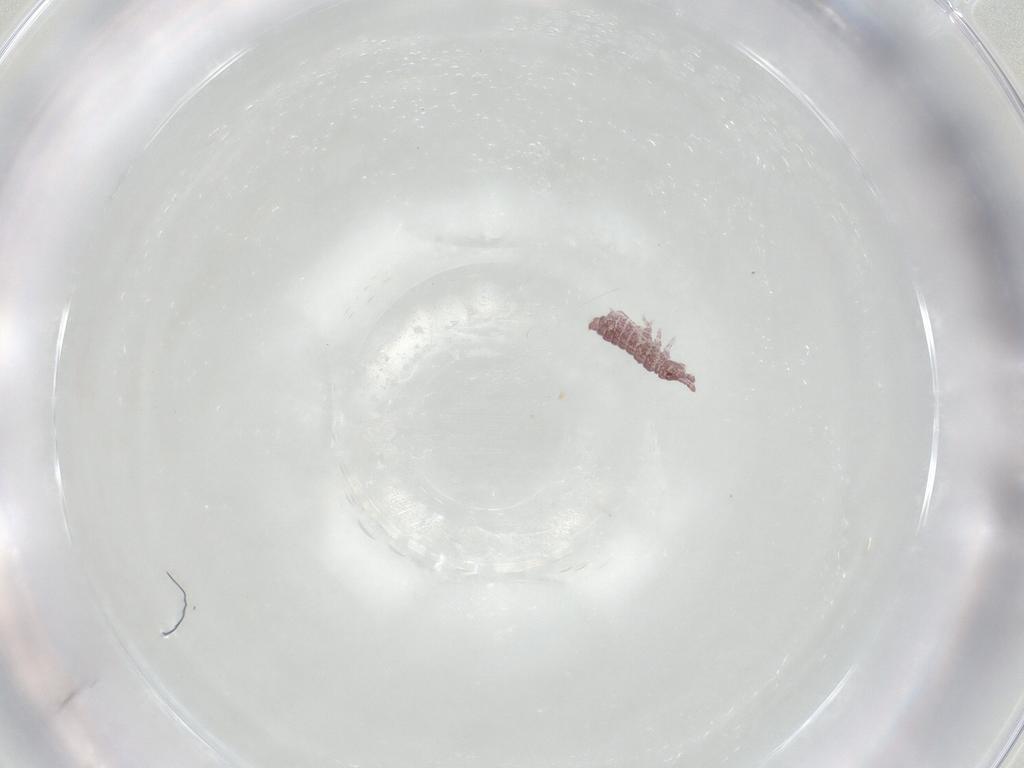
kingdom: Animalia
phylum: Arthropoda
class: Collembola
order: Poduromorpha
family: Hypogastruridae
